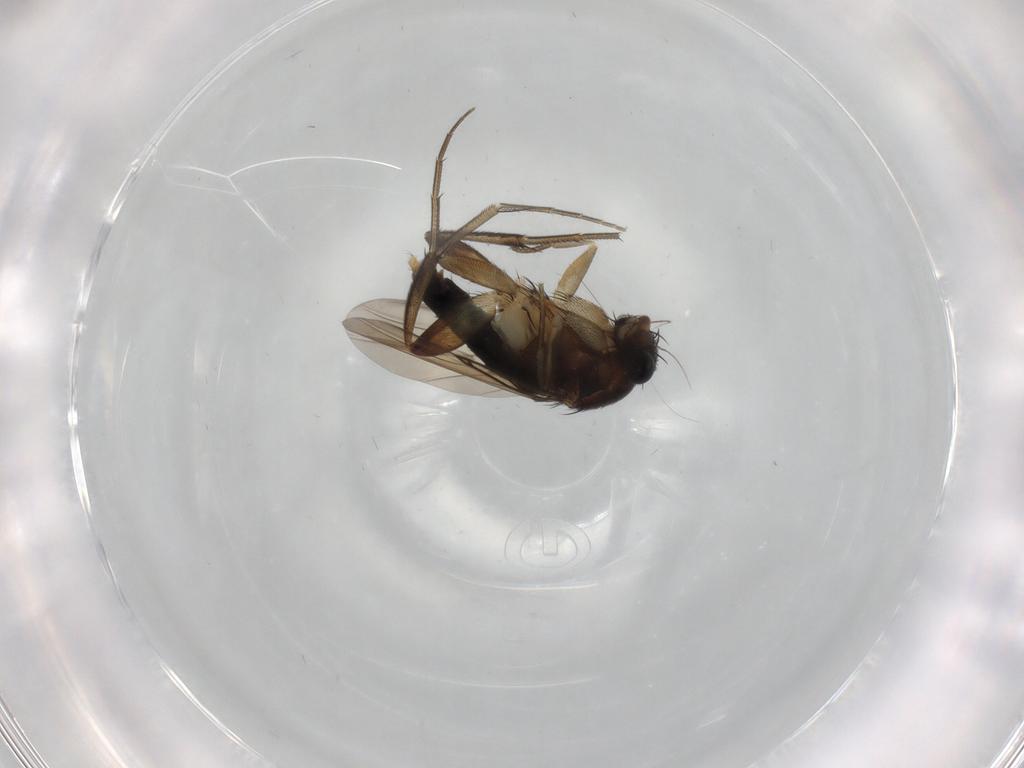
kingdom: Animalia
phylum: Arthropoda
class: Insecta
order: Diptera
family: Phoridae
